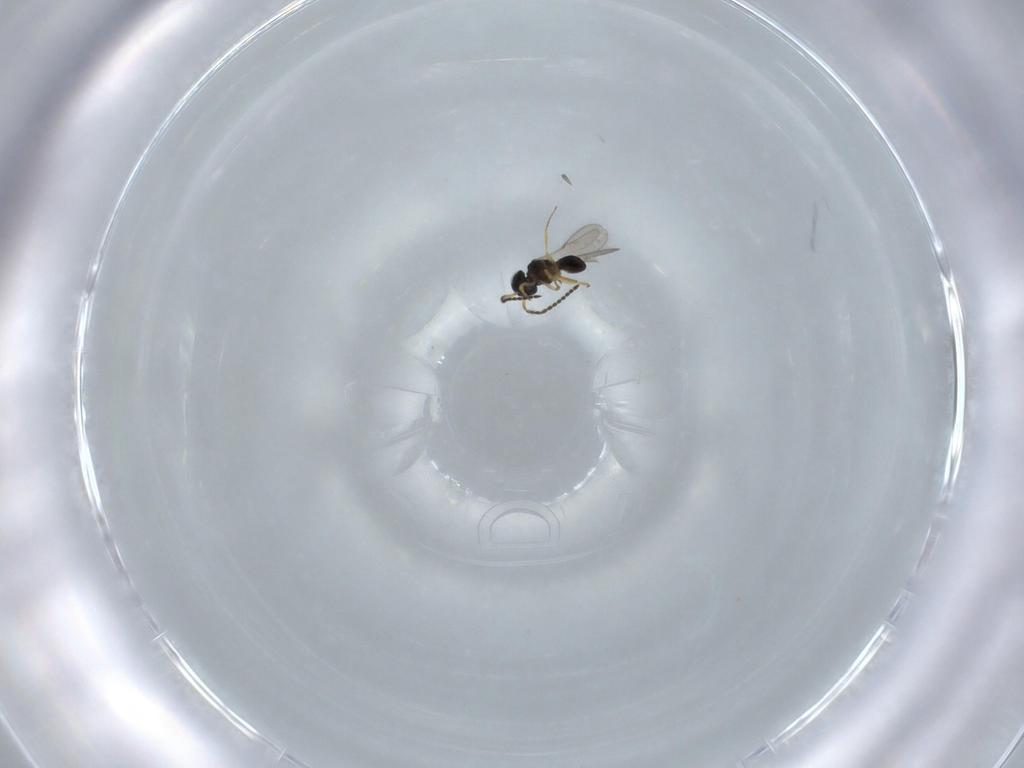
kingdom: Animalia
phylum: Arthropoda
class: Insecta
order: Hymenoptera
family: Scelionidae
